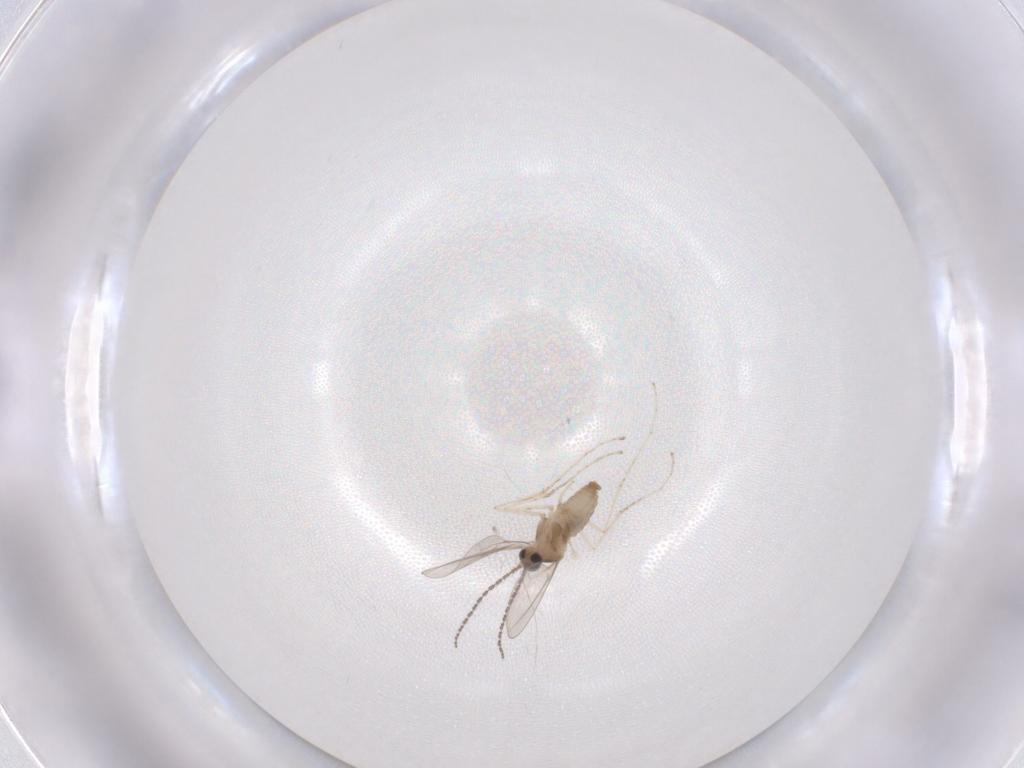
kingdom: Animalia
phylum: Arthropoda
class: Insecta
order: Diptera
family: Cecidomyiidae
